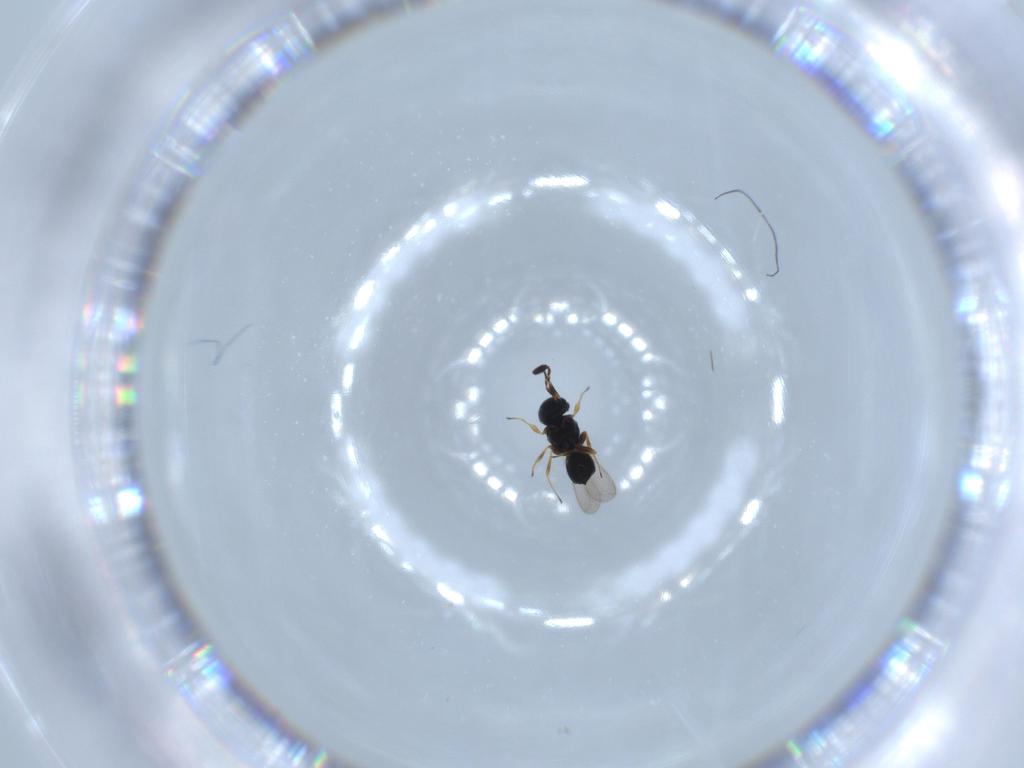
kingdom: Animalia
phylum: Arthropoda
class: Insecta
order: Hymenoptera
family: Scelionidae
